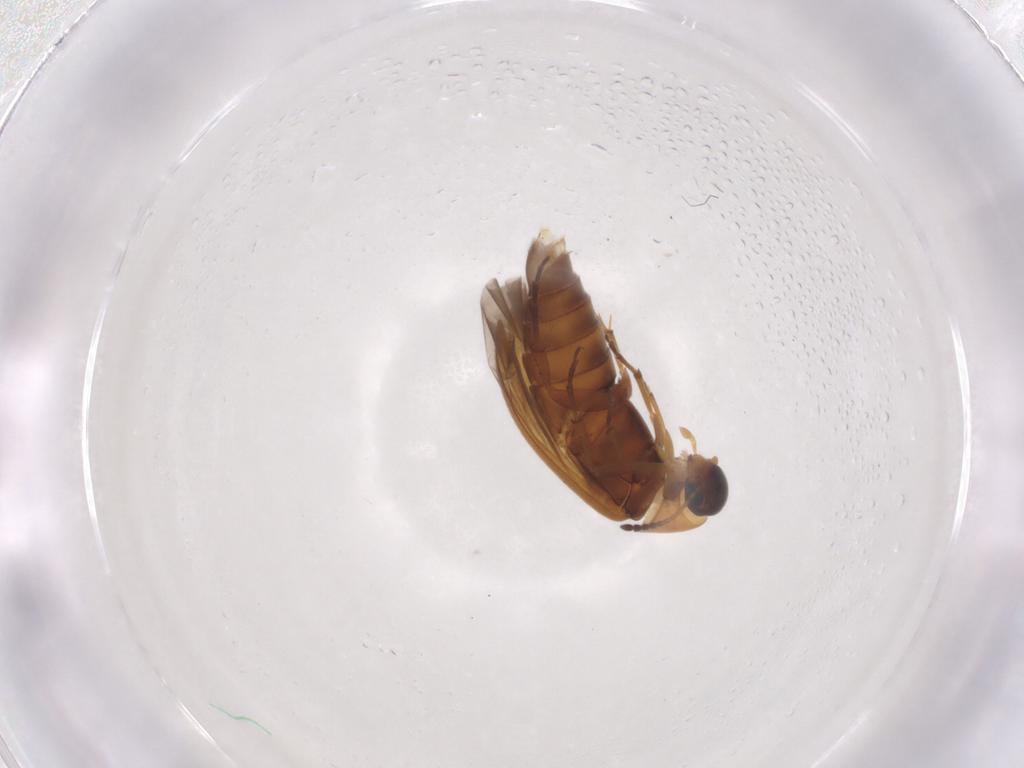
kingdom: Animalia
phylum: Arthropoda
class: Insecta
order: Coleoptera
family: Scraptiidae
